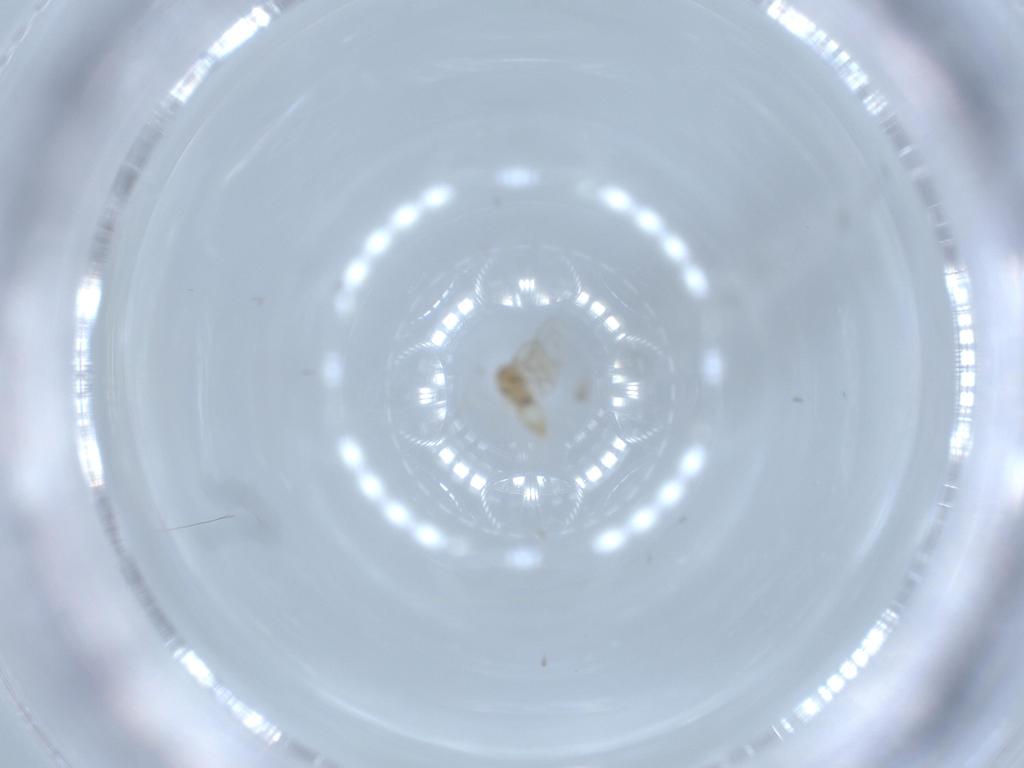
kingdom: Animalia
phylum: Arthropoda
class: Insecta
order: Diptera
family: Cecidomyiidae
